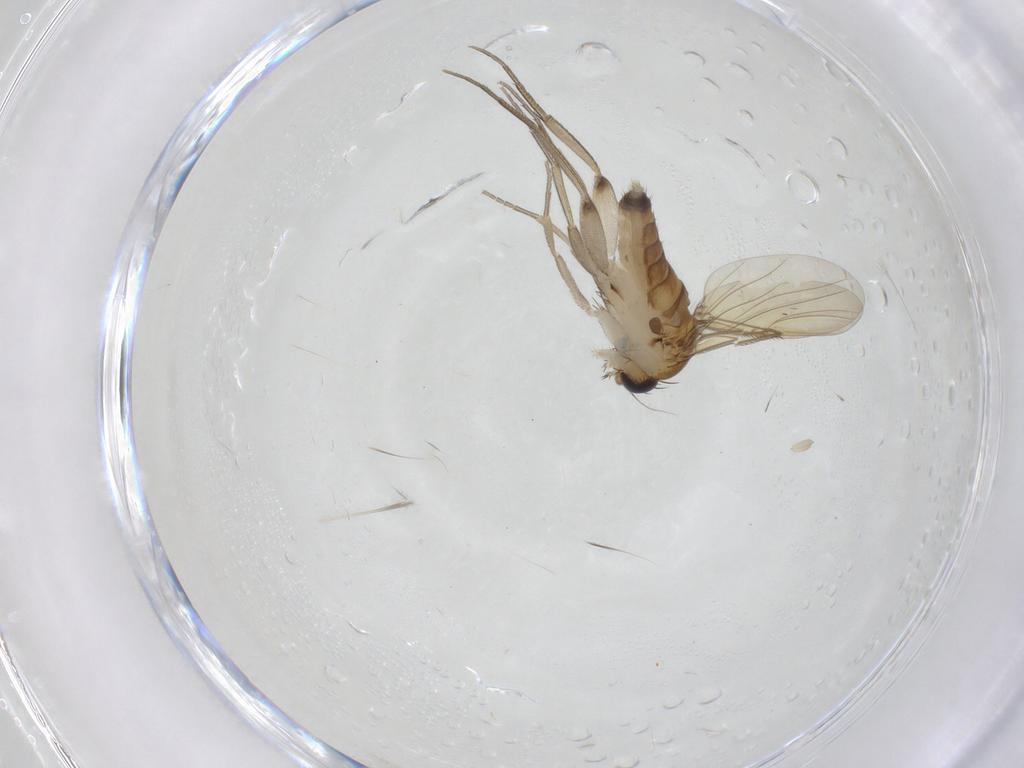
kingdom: Animalia
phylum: Arthropoda
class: Insecta
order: Diptera
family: Phoridae
